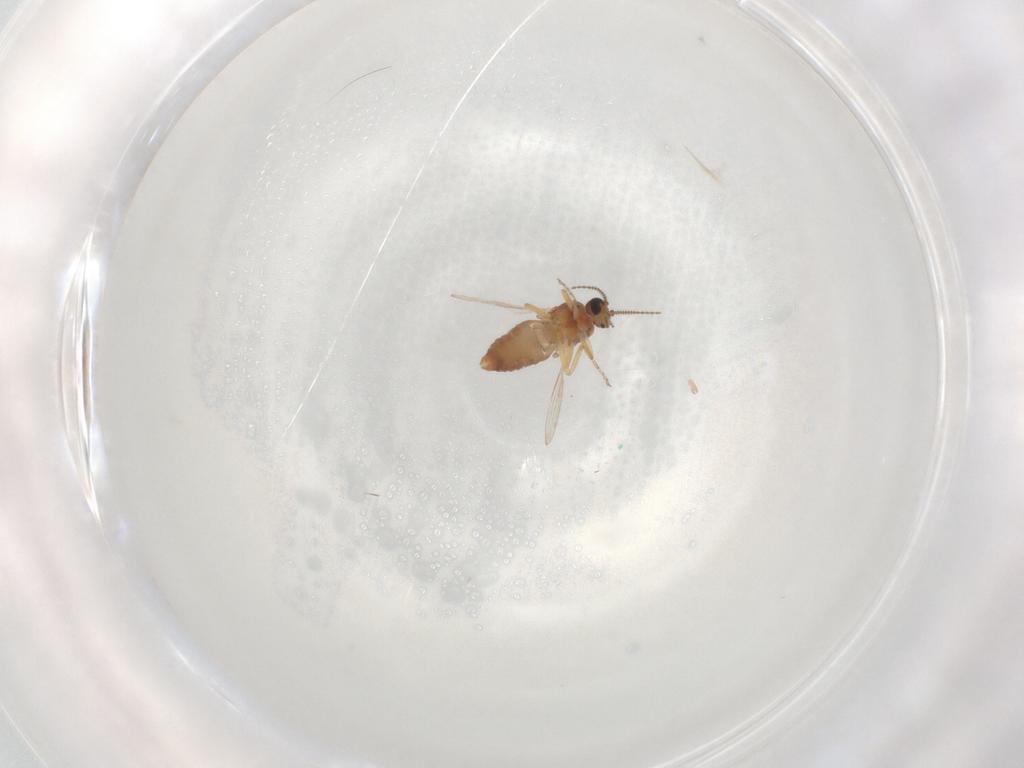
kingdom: Animalia
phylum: Arthropoda
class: Insecta
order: Diptera
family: Ceratopogonidae
